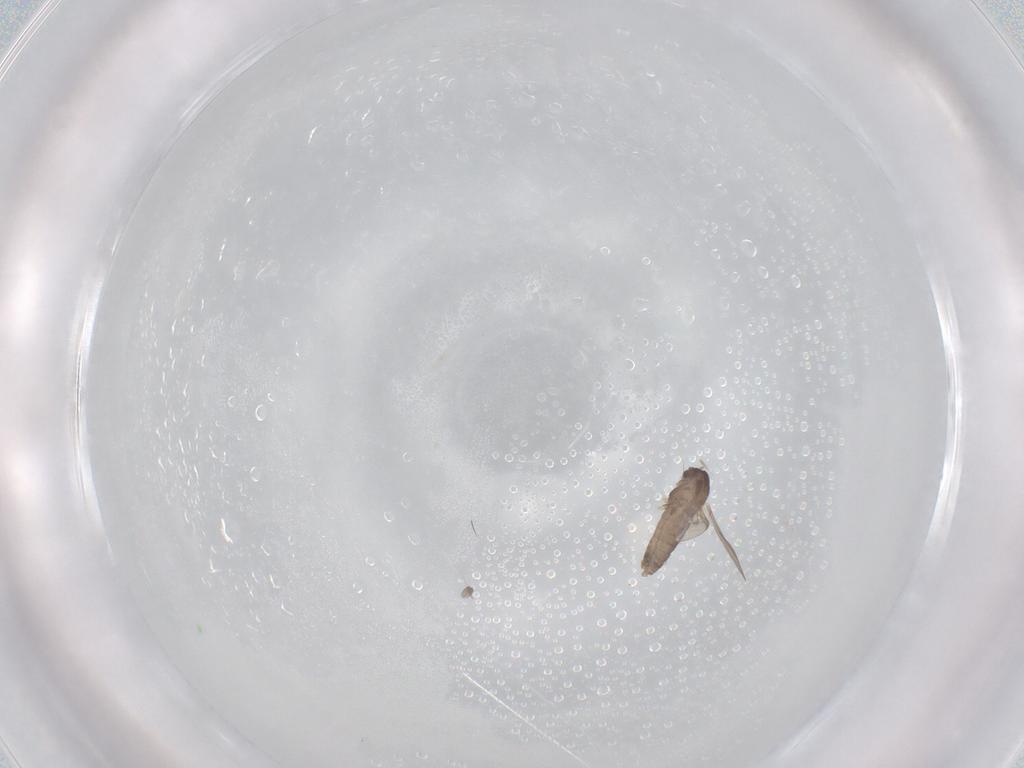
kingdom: Animalia
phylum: Arthropoda
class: Insecta
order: Diptera
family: Chironomidae
